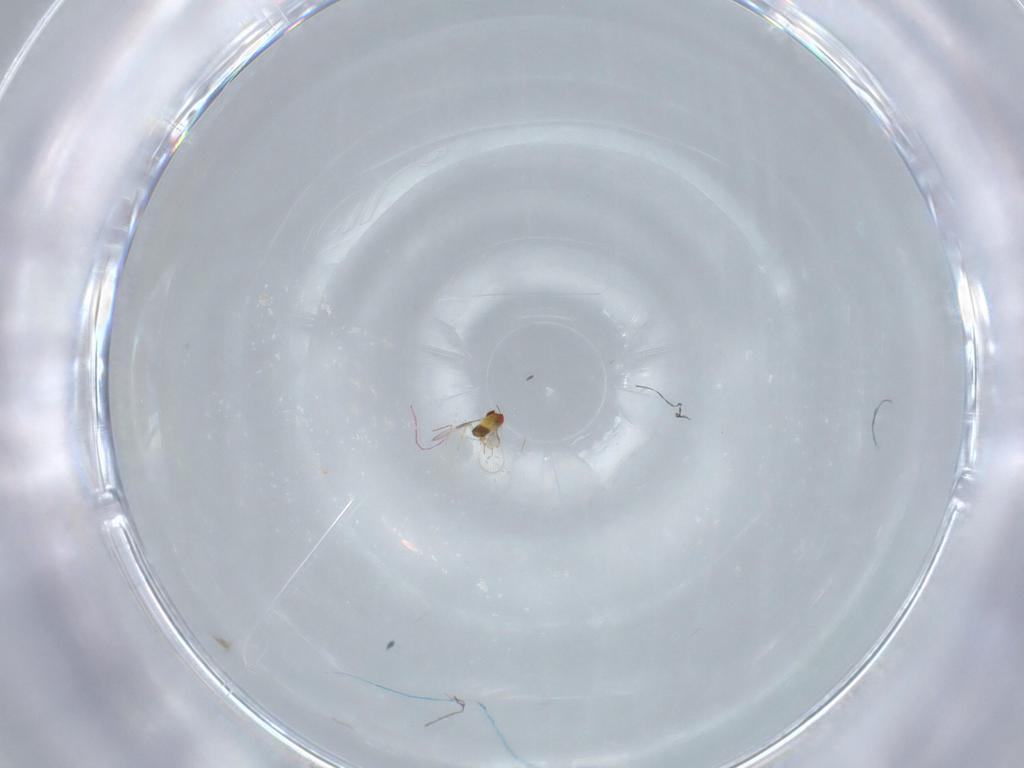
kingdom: Animalia
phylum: Arthropoda
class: Insecta
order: Hymenoptera
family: Trichogrammatidae
